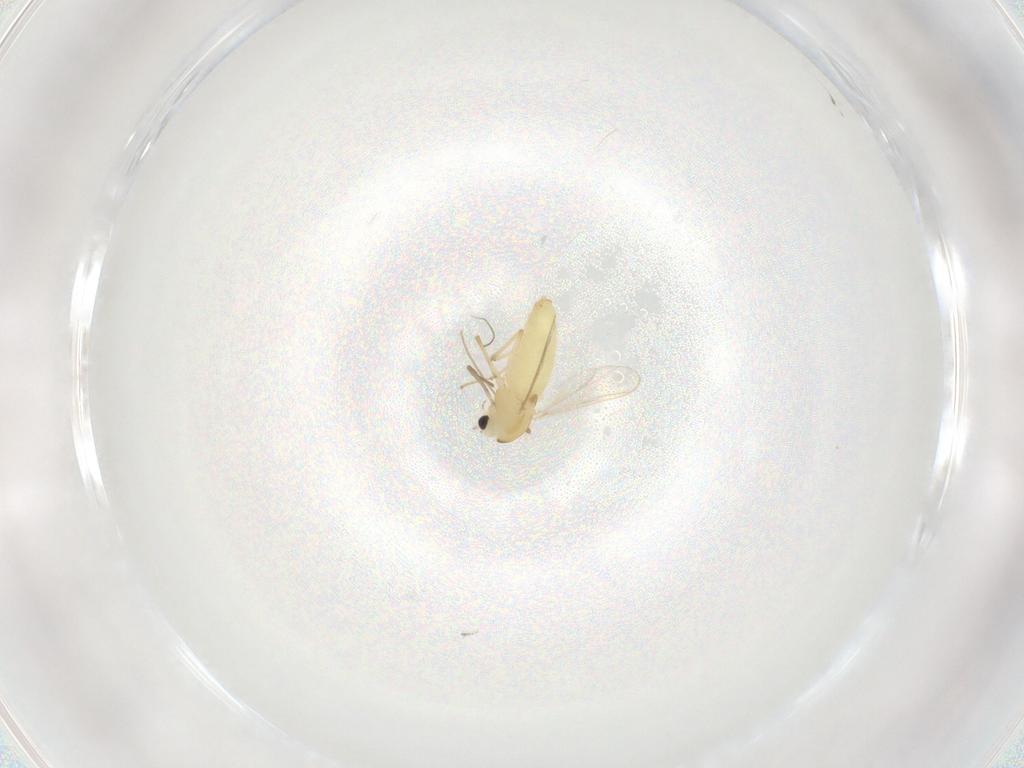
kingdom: Animalia
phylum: Arthropoda
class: Insecta
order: Diptera
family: Chironomidae
